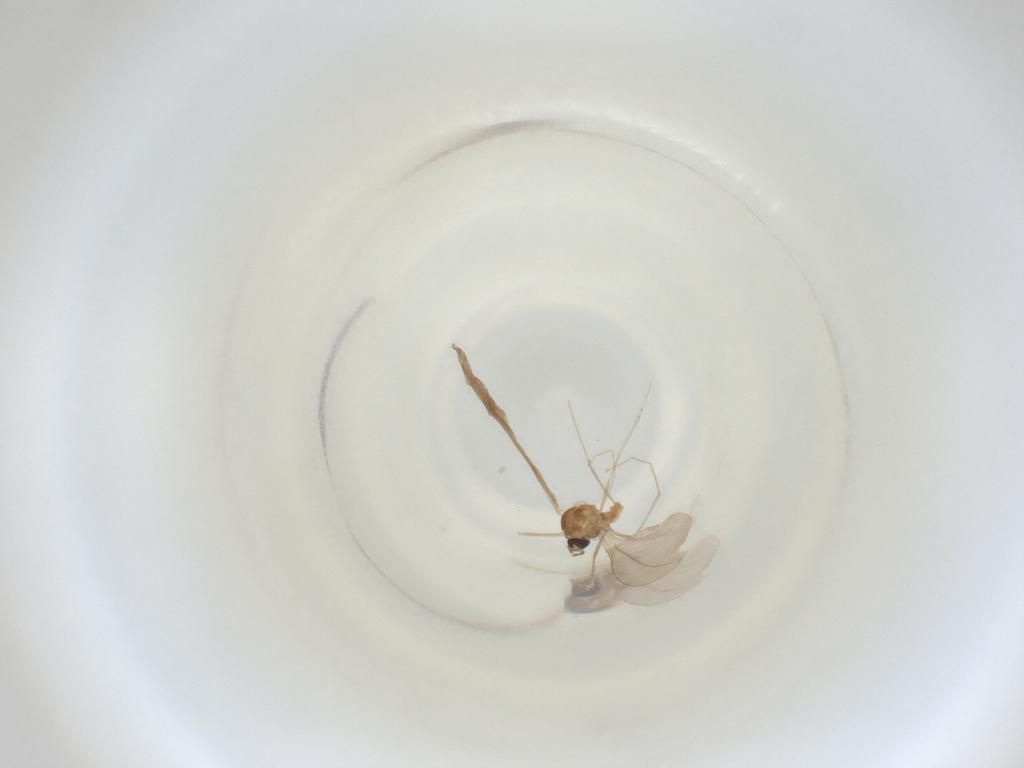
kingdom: Animalia
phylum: Arthropoda
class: Insecta
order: Diptera
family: Cecidomyiidae
